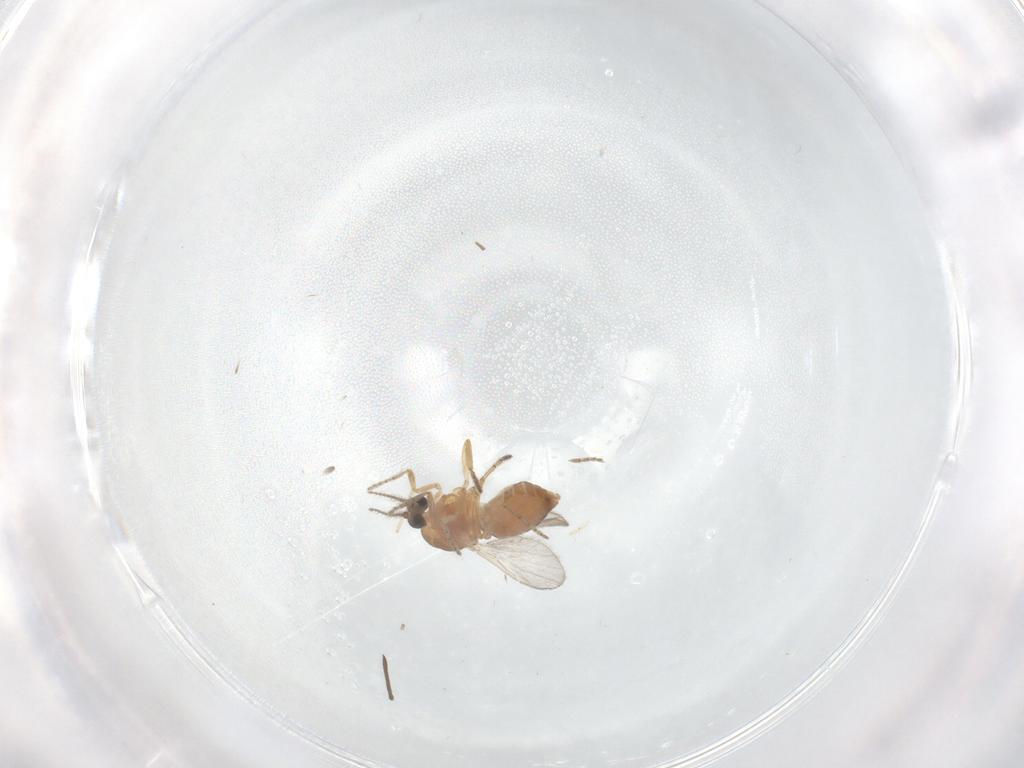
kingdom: Animalia
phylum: Arthropoda
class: Insecta
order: Diptera
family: Ceratopogonidae
